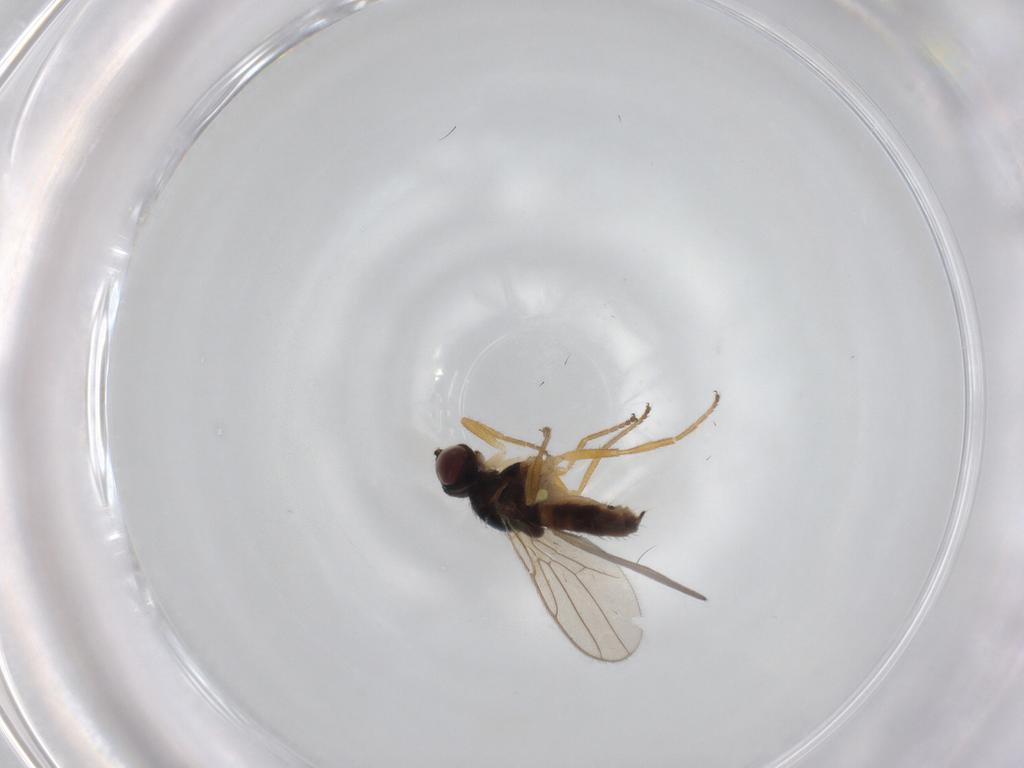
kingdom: Animalia
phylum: Arthropoda
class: Insecta
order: Diptera
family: Chloropidae
